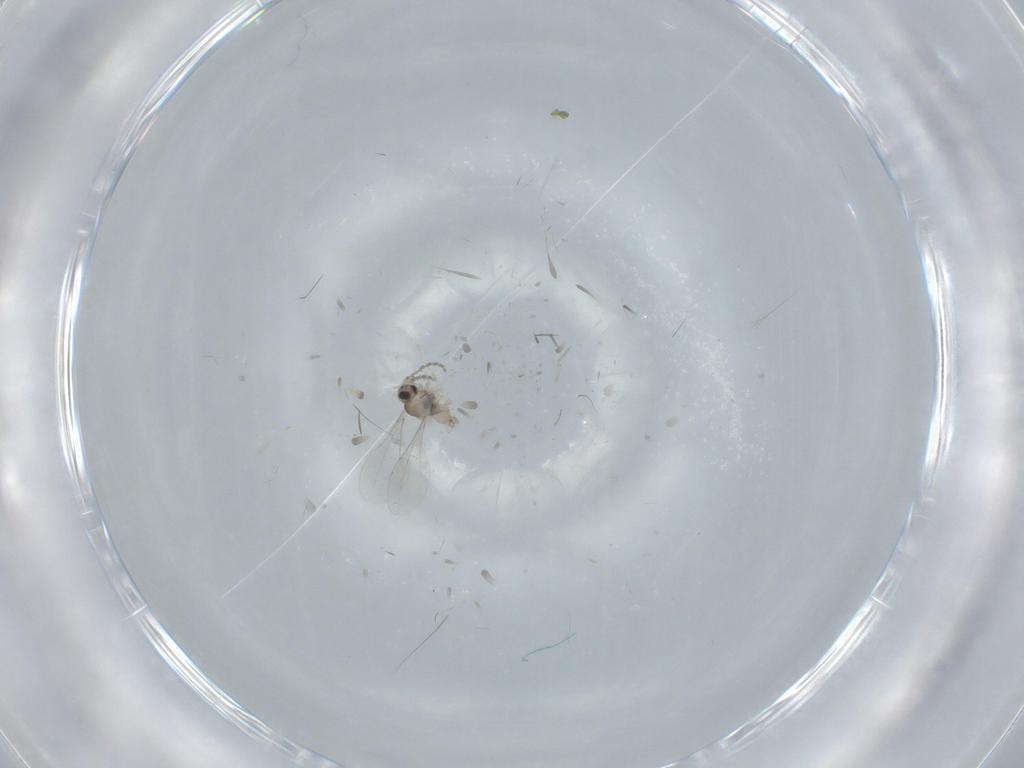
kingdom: Animalia
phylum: Arthropoda
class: Insecta
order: Diptera
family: Cecidomyiidae
